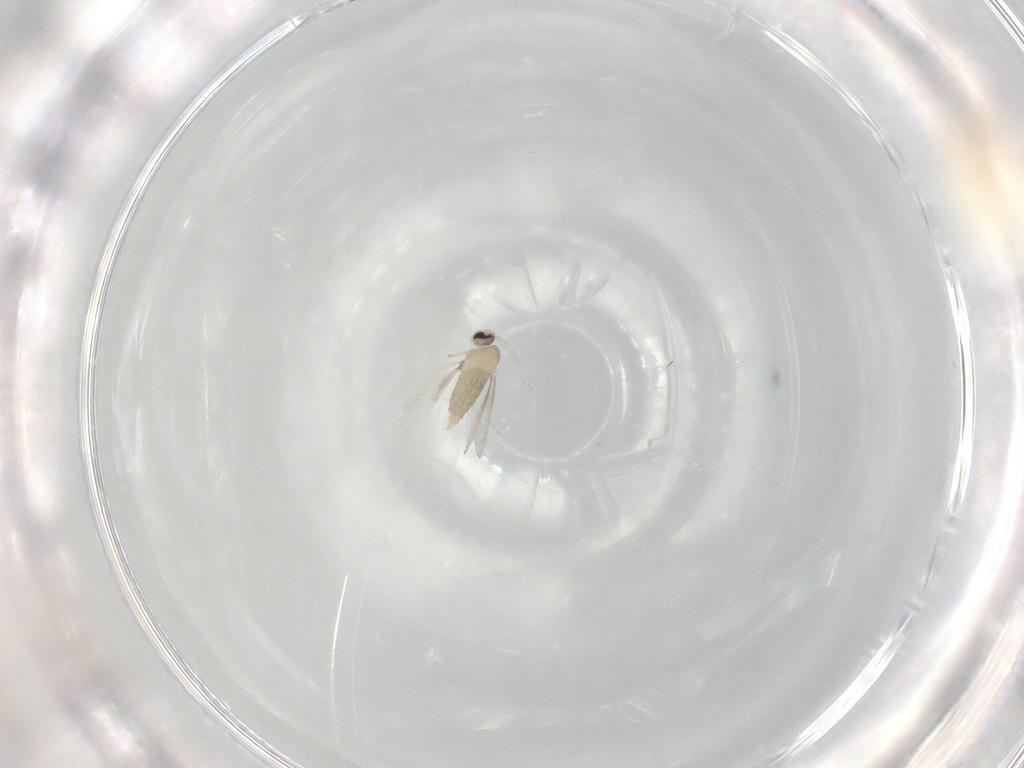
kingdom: Animalia
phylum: Arthropoda
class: Insecta
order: Diptera
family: Cecidomyiidae
